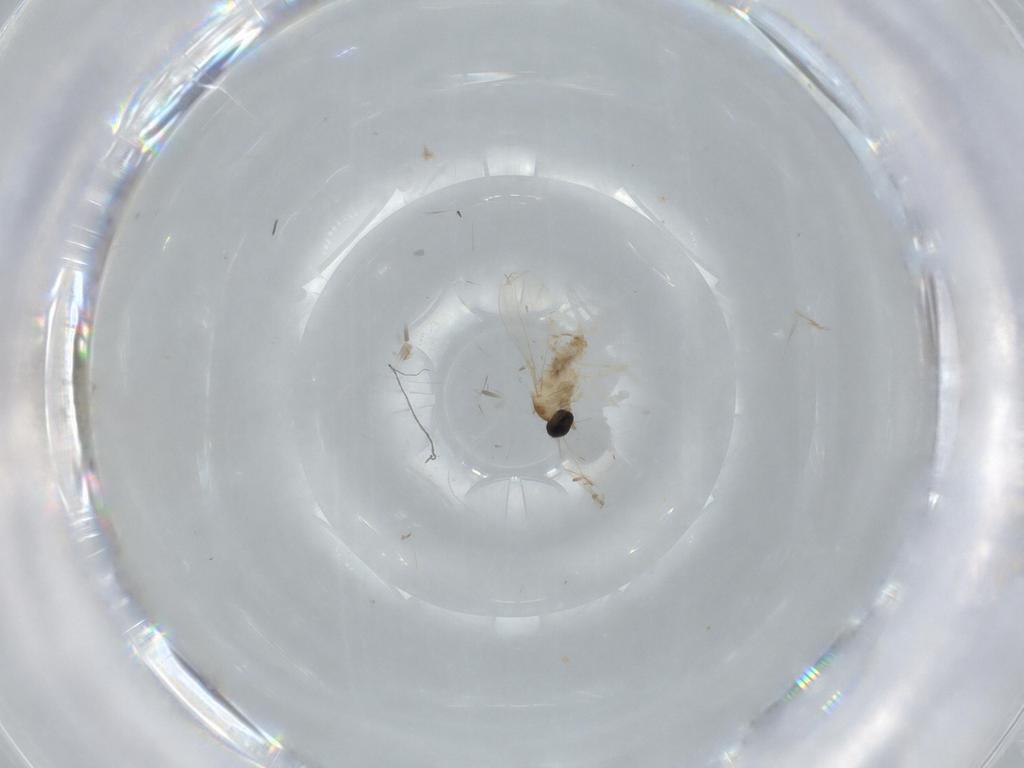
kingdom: Animalia
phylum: Arthropoda
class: Insecta
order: Diptera
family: Cecidomyiidae
